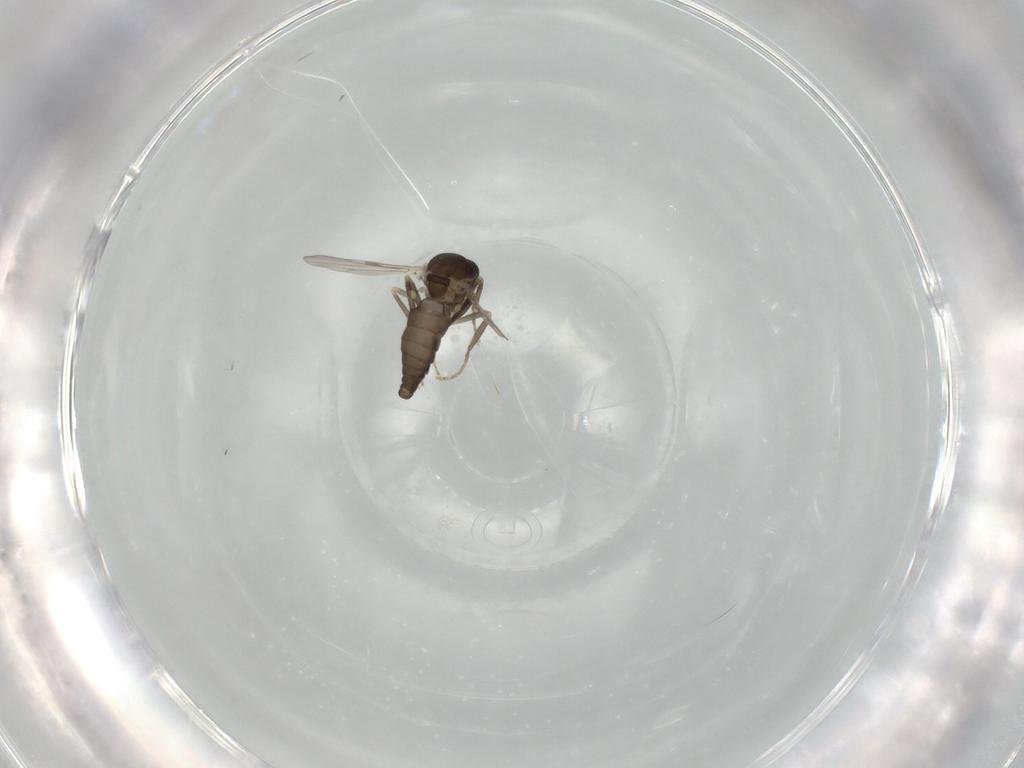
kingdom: Animalia
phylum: Arthropoda
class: Insecta
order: Diptera
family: Ceratopogonidae
